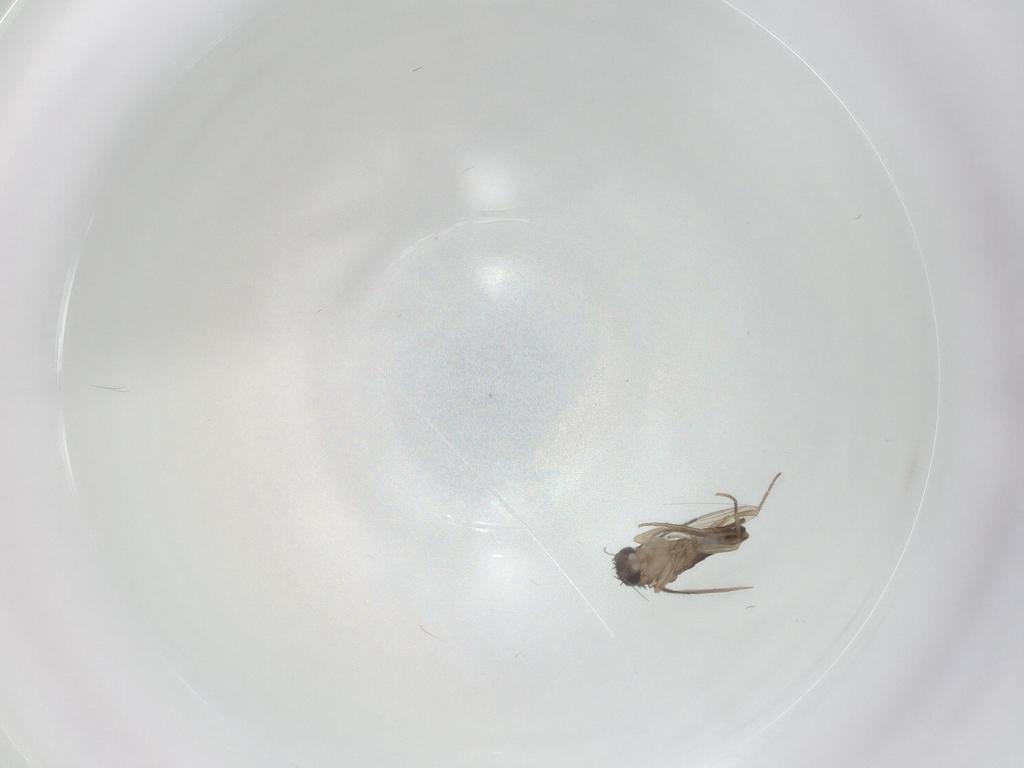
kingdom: Animalia
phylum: Arthropoda
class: Insecta
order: Diptera
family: Phoridae
